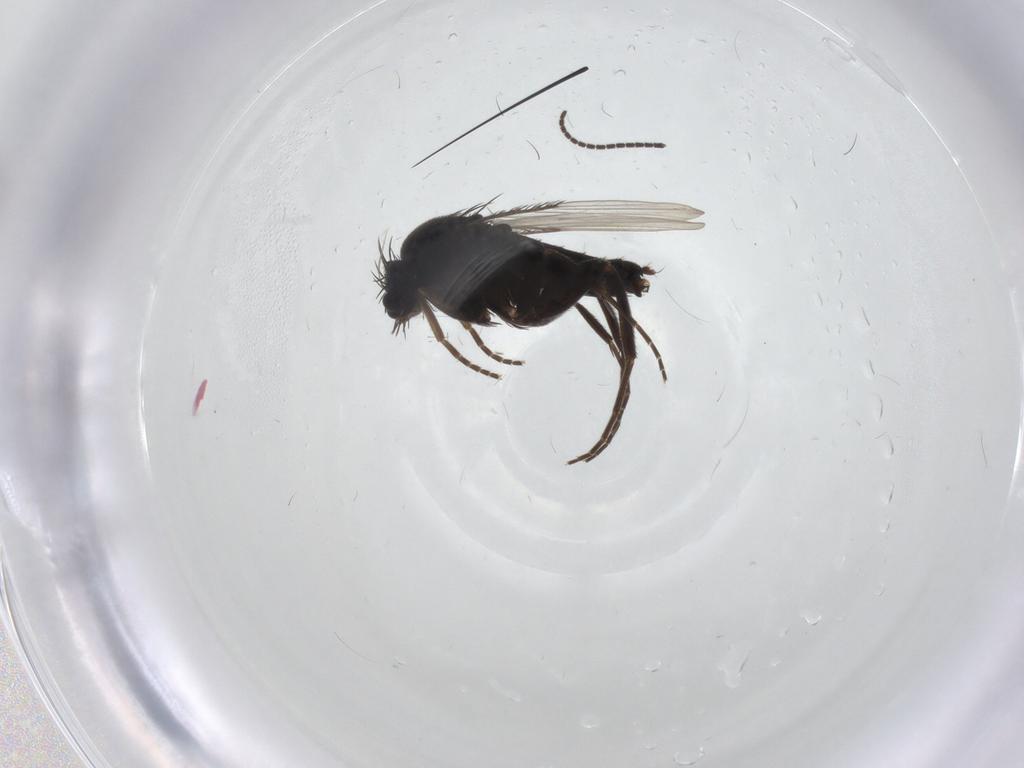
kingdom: Animalia
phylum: Arthropoda
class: Insecta
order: Diptera
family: Phoridae
